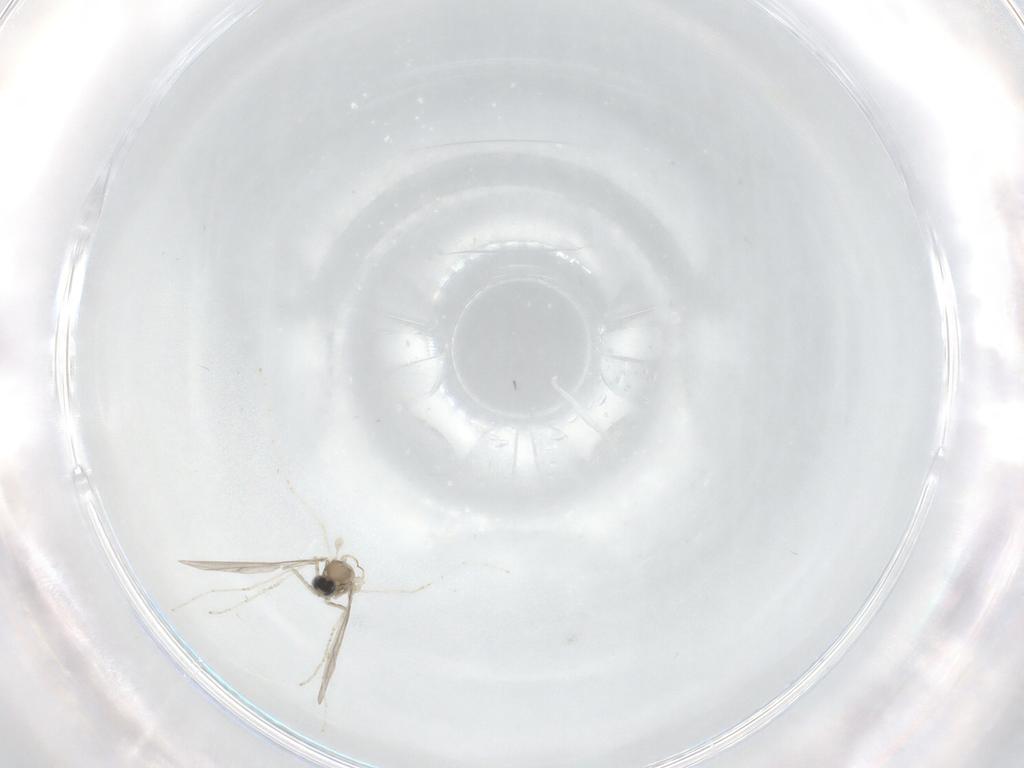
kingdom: Animalia
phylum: Arthropoda
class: Insecta
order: Diptera
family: Cecidomyiidae
